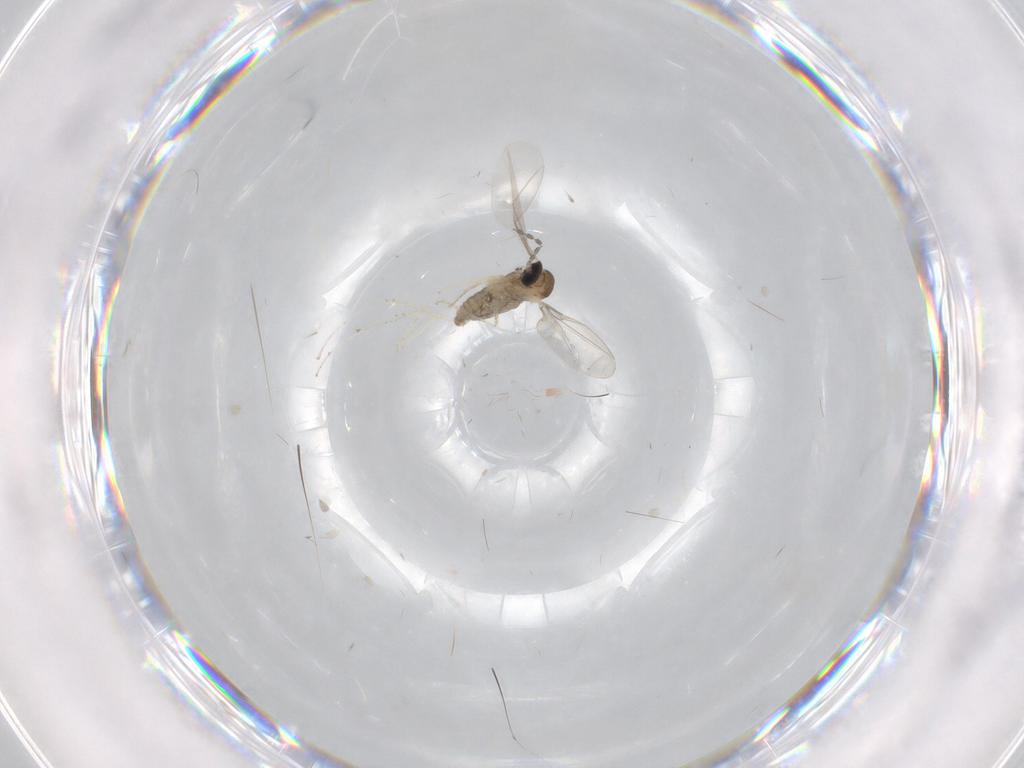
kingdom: Animalia
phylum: Arthropoda
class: Insecta
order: Diptera
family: Cecidomyiidae
